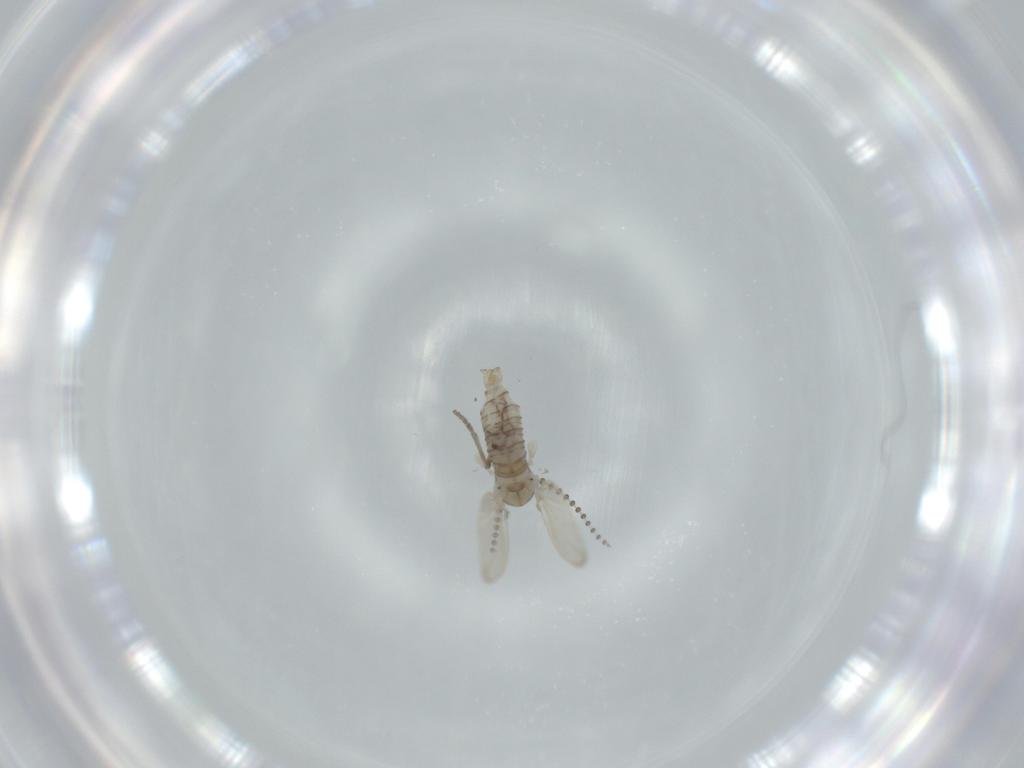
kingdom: Animalia
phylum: Arthropoda
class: Insecta
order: Diptera
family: Psychodidae
